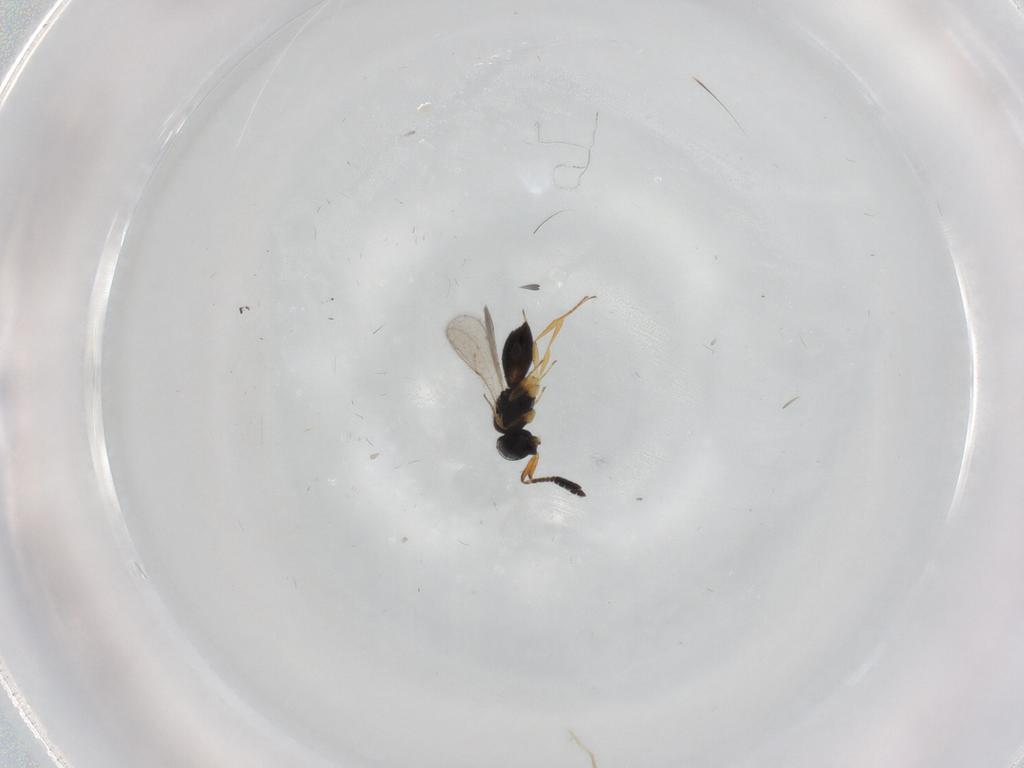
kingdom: Animalia
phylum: Arthropoda
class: Insecta
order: Hymenoptera
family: Scelionidae
